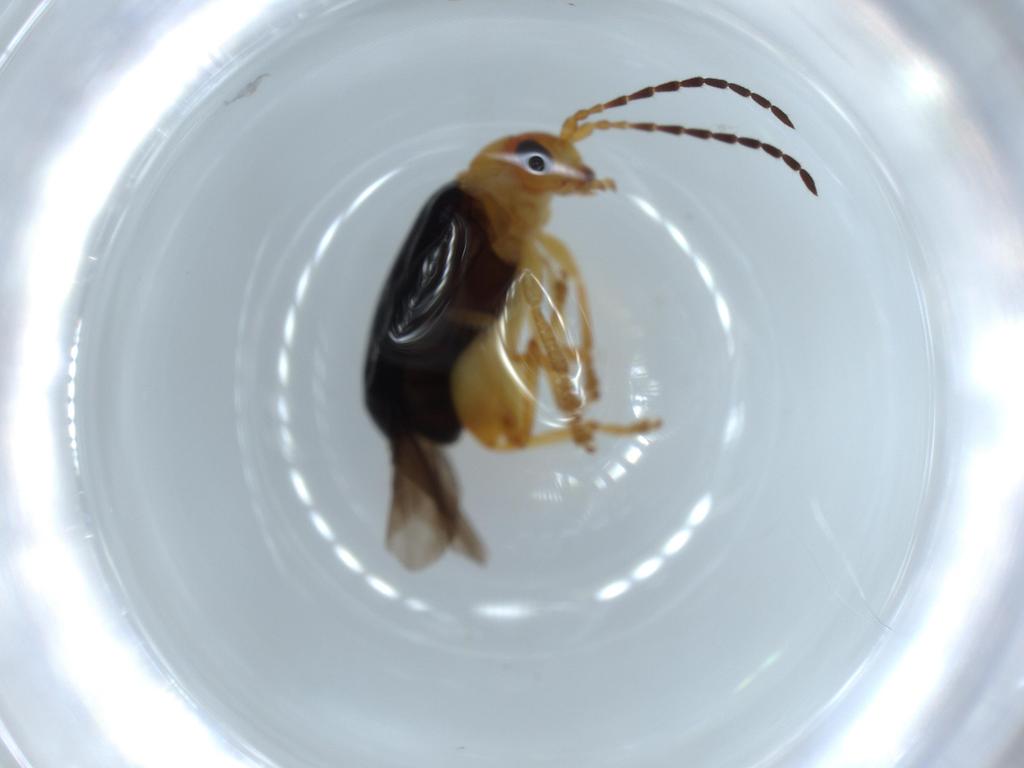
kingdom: Animalia
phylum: Arthropoda
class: Insecta
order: Coleoptera
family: Chrysomelidae
